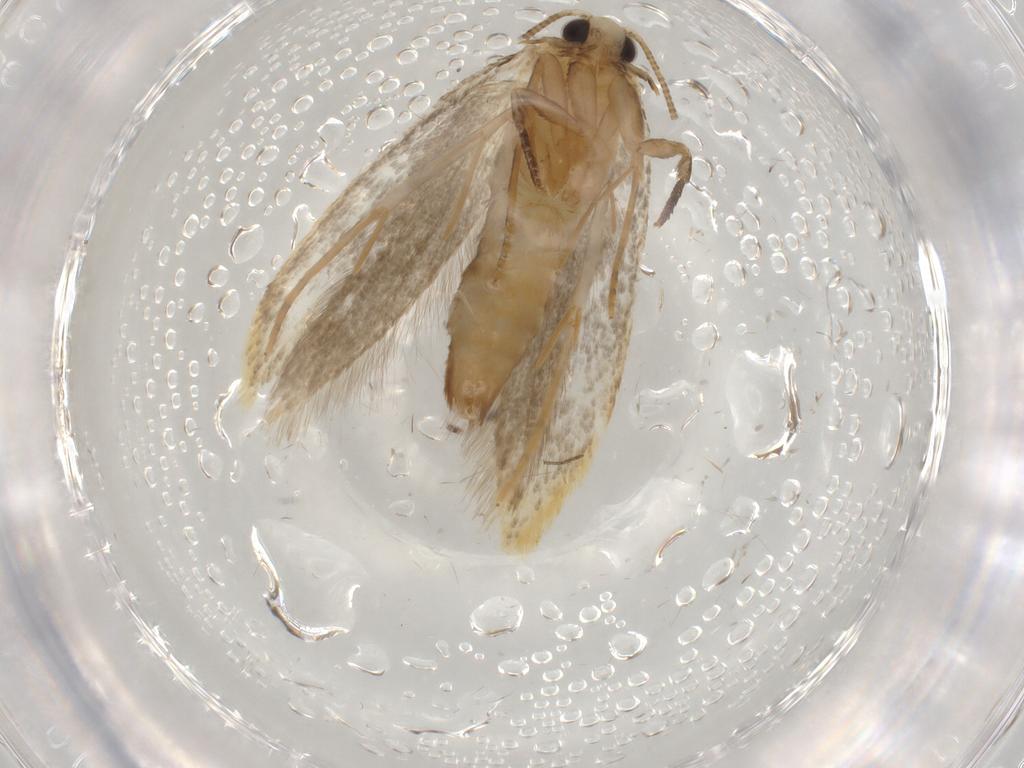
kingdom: Animalia
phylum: Arthropoda
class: Insecta
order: Lepidoptera
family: Tineidae
